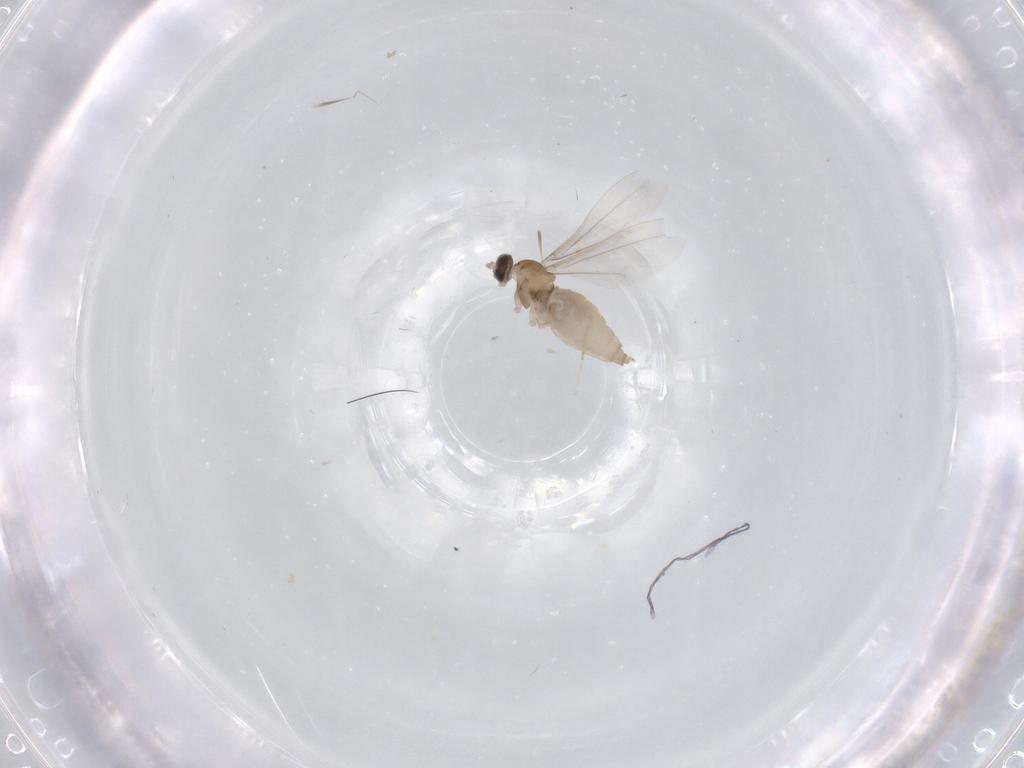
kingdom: Animalia
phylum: Arthropoda
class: Insecta
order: Diptera
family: Cecidomyiidae
